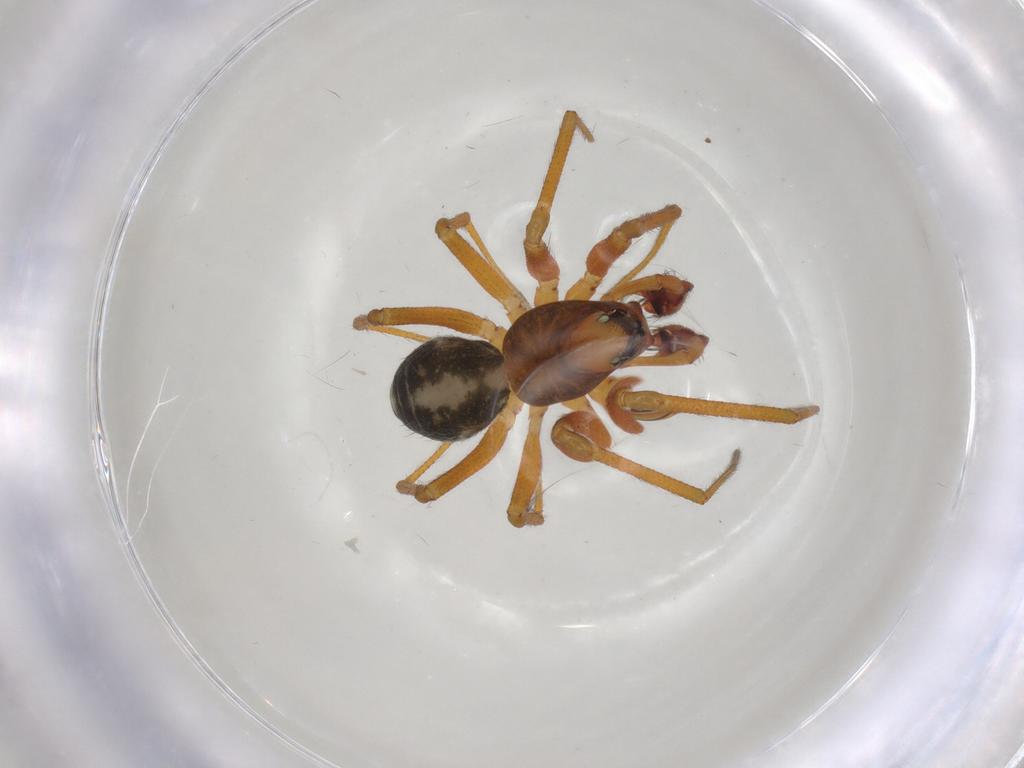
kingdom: Animalia
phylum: Arthropoda
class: Arachnida
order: Araneae
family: Linyphiidae
